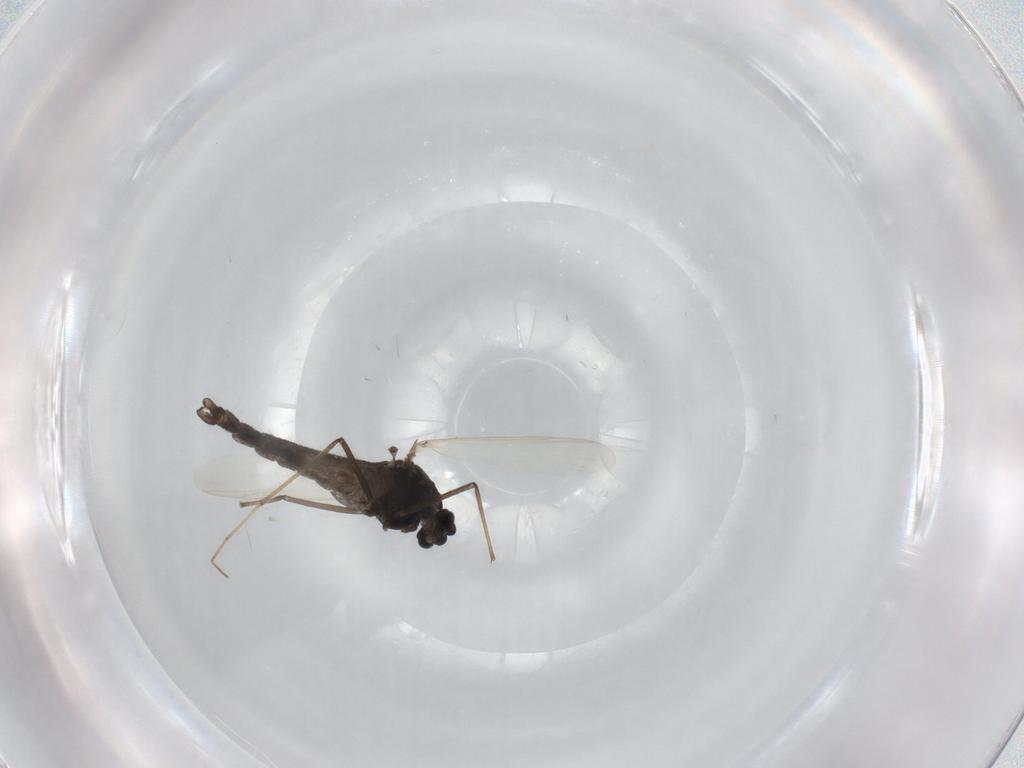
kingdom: Animalia
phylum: Arthropoda
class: Insecta
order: Diptera
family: Chironomidae
